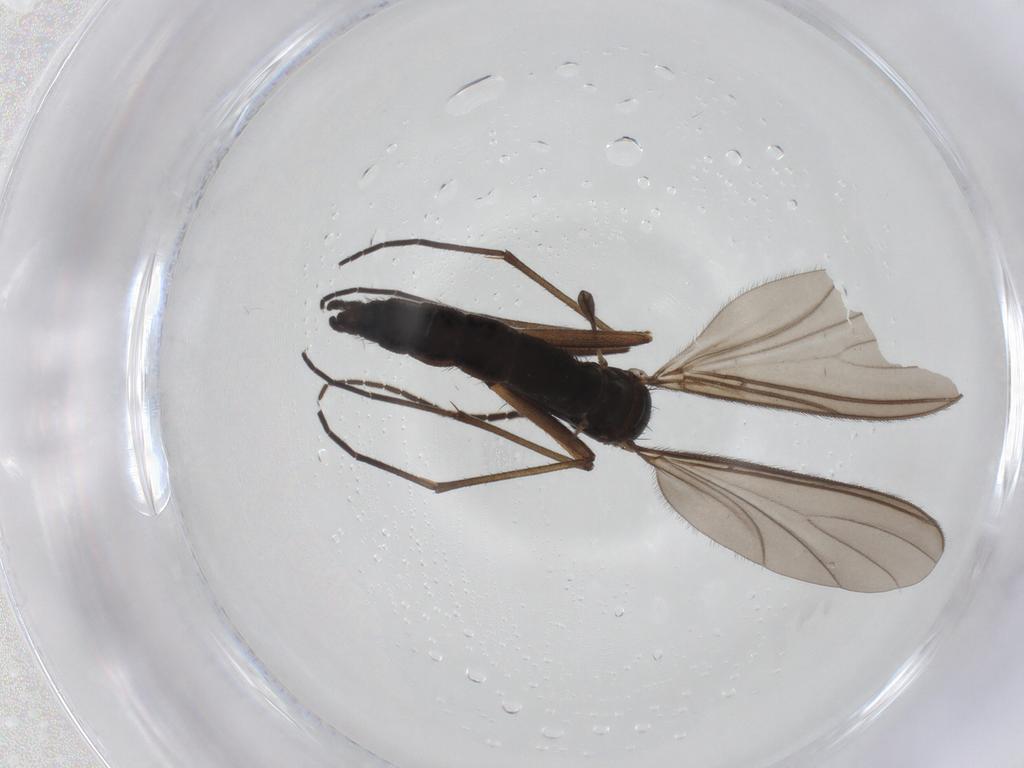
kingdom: Animalia
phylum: Arthropoda
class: Insecta
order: Diptera
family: Sciaridae
